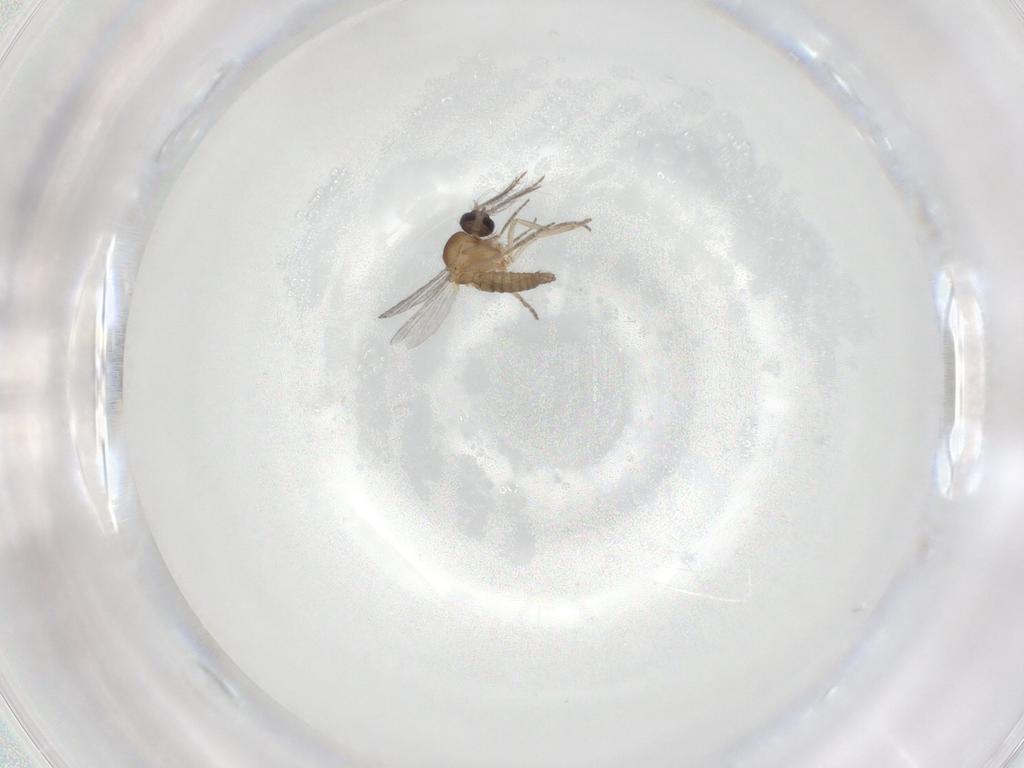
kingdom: Animalia
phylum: Arthropoda
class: Insecta
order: Diptera
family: Ceratopogonidae
